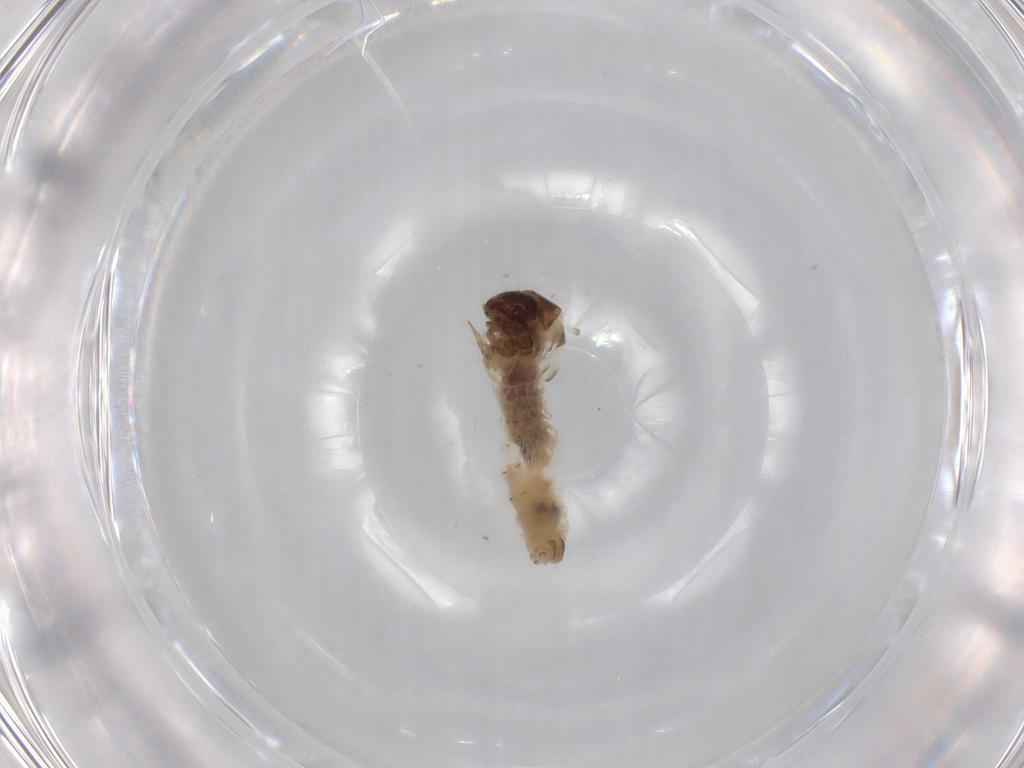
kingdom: Animalia
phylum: Arthropoda
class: Insecta
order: Lepidoptera
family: Psychidae
